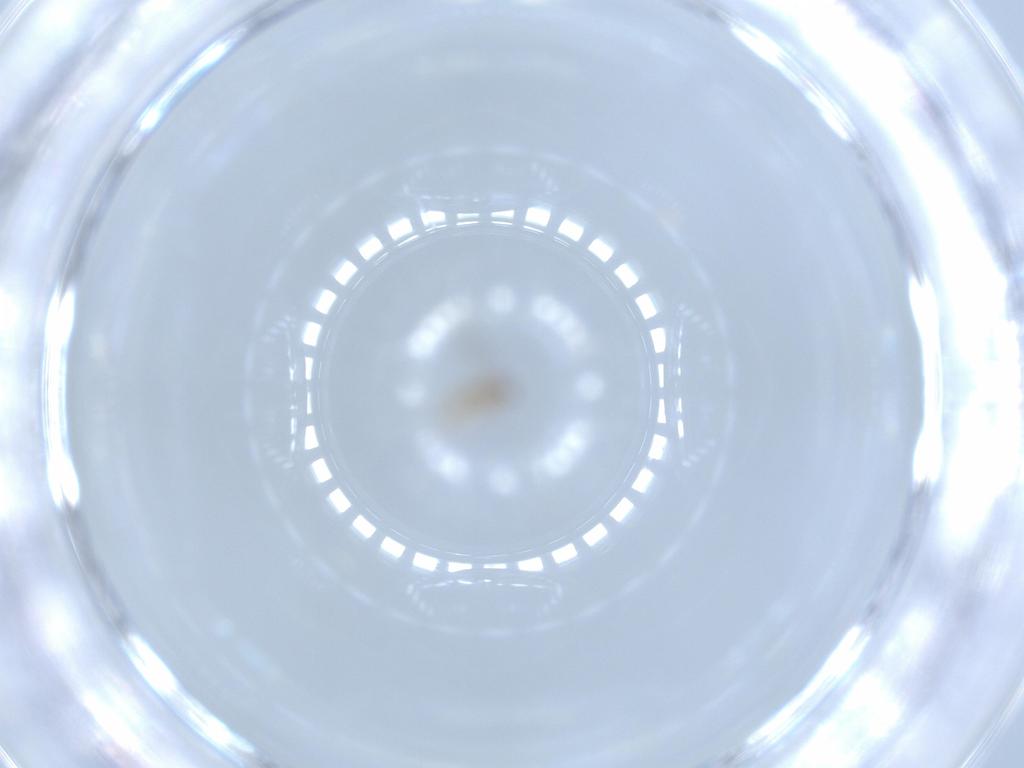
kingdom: Animalia
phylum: Arthropoda
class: Insecta
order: Diptera
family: Cecidomyiidae
